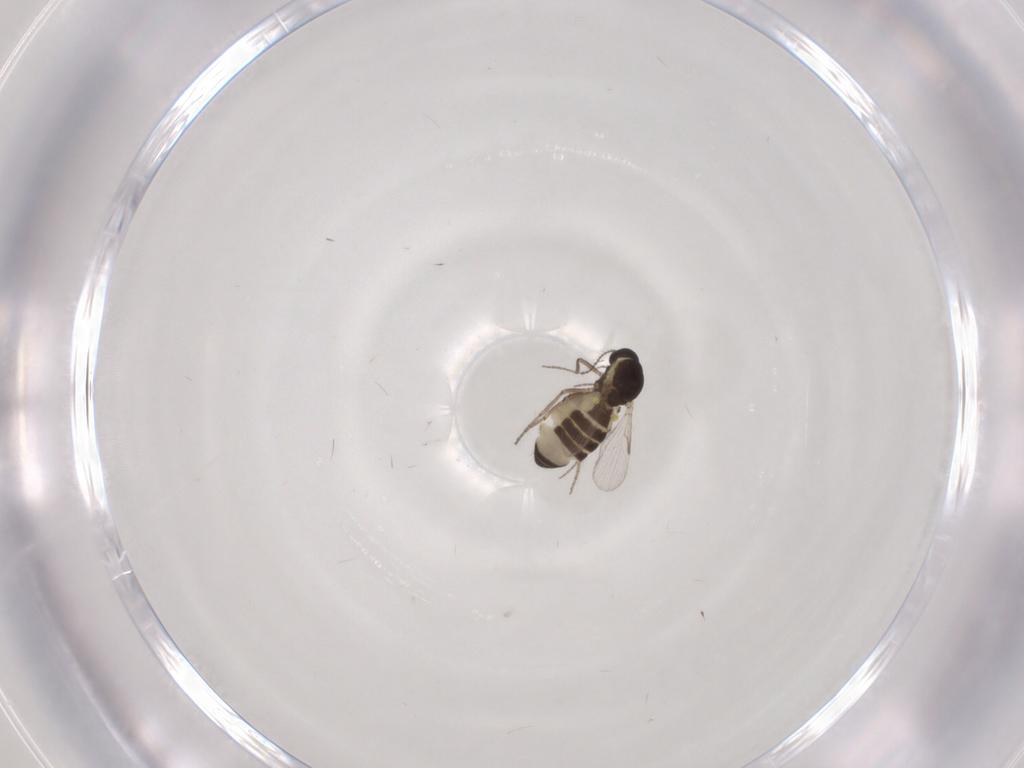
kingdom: Animalia
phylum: Arthropoda
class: Insecta
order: Diptera
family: Ceratopogonidae
